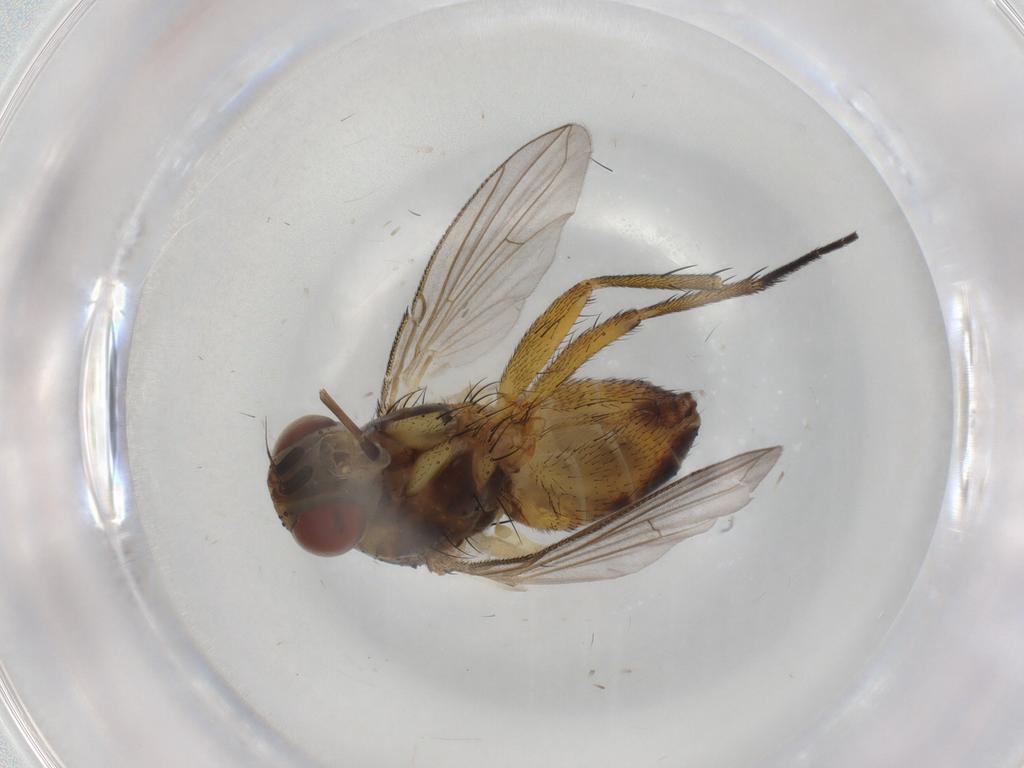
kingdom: Animalia
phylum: Arthropoda
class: Insecta
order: Diptera
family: Tachinidae
